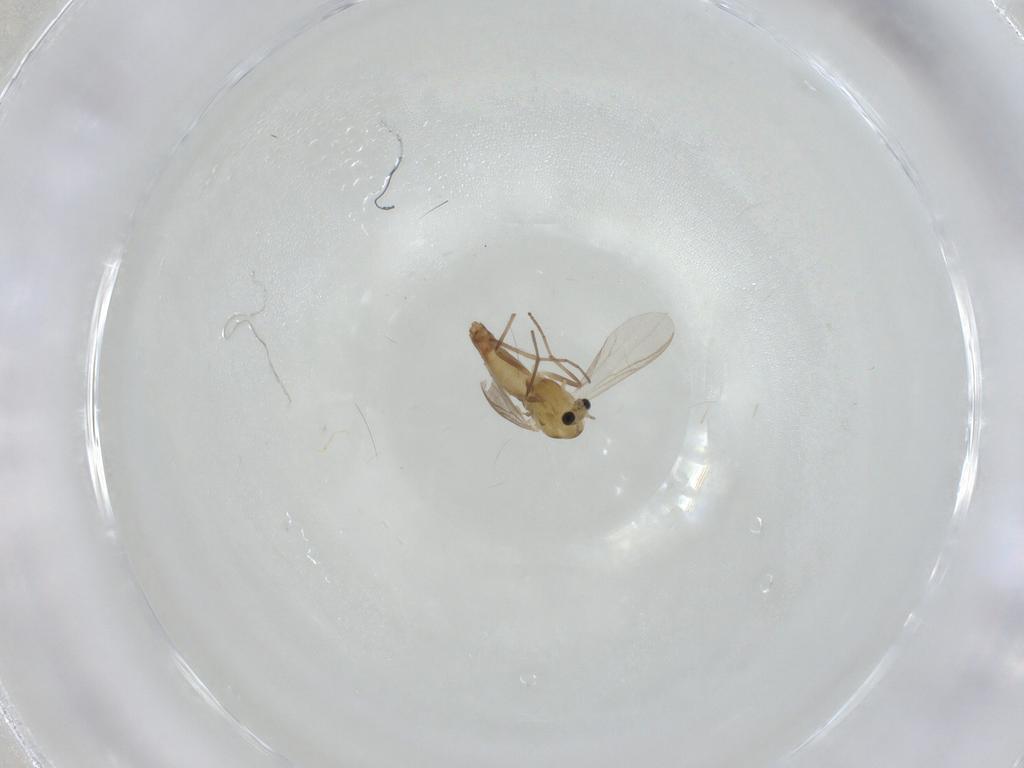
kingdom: Animalia
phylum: Arthropoda
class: Insecta
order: Diptera
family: Chironomidae
